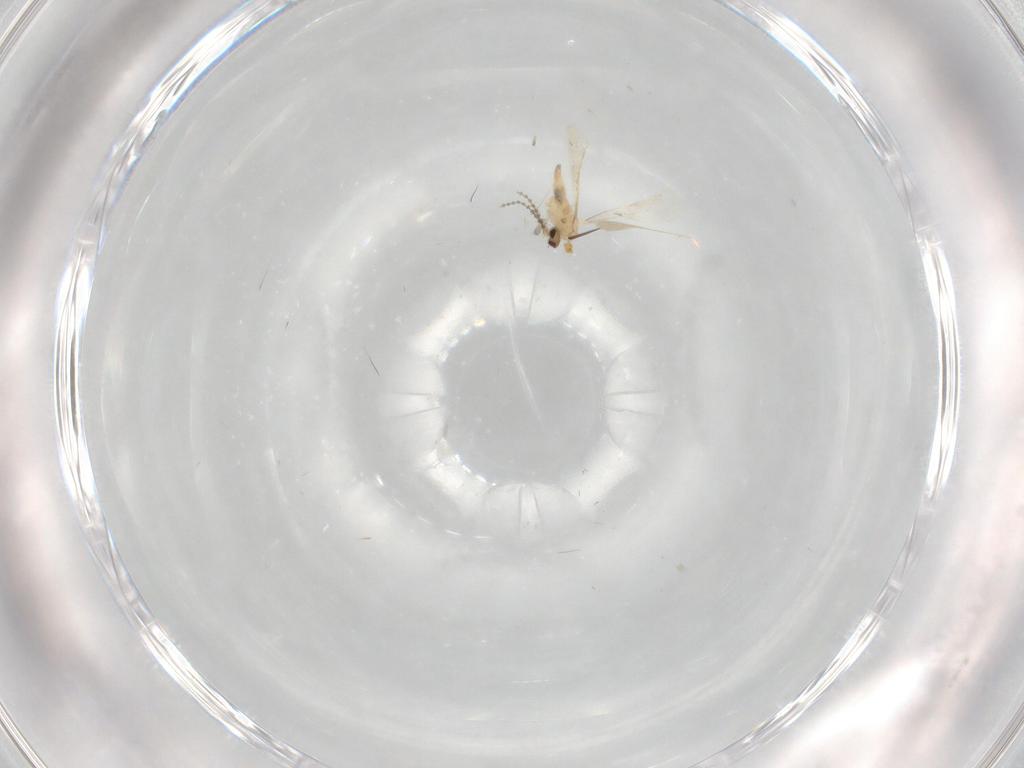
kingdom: Animalia
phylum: Arthropoda
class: Insecta
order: Diptera
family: Cecidomyiidae
